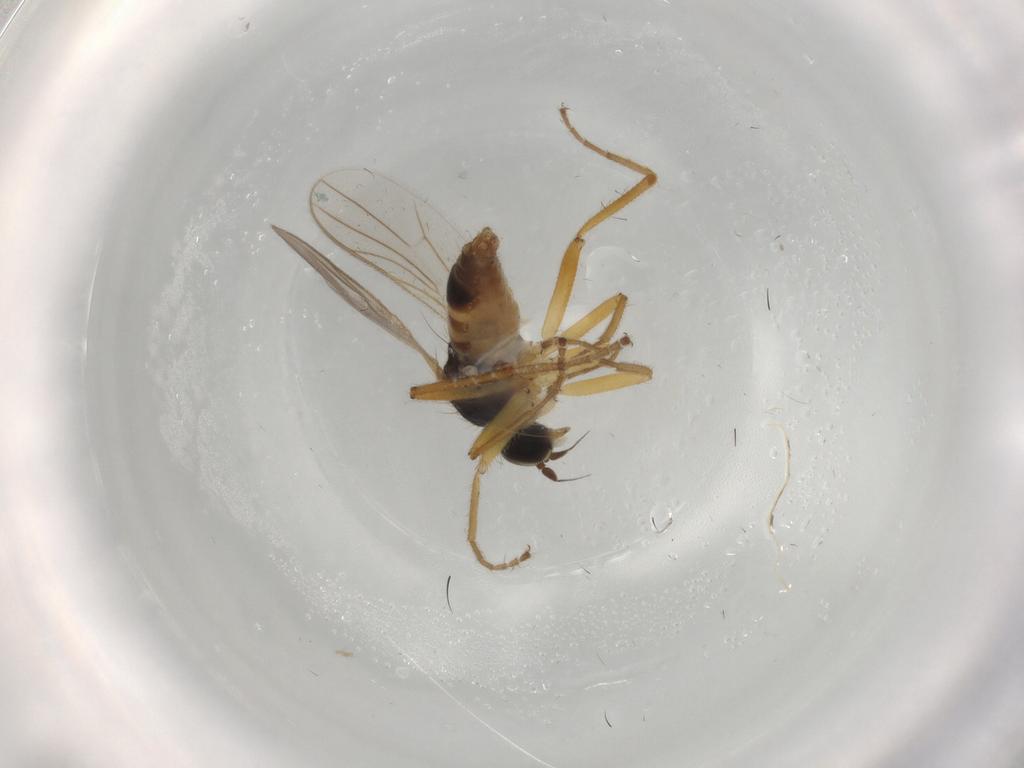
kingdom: Animalia
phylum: Arthropoda
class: Insecta
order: Diptera
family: Hybotidae
